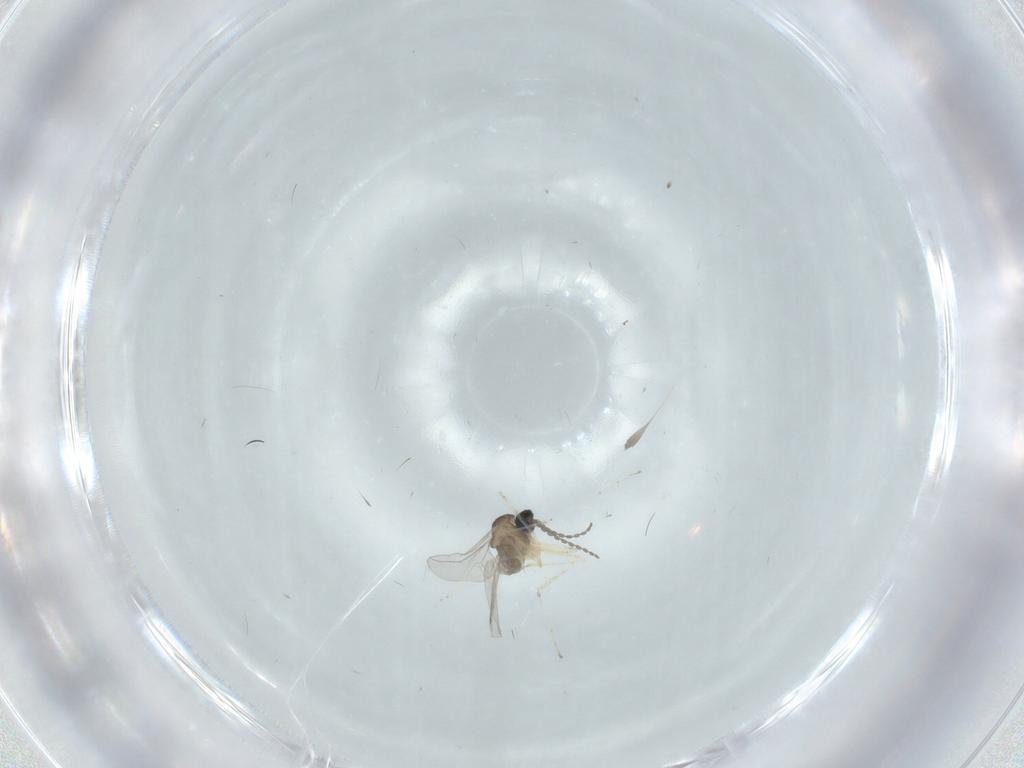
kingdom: Animalia
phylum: Arthropoda
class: Insecta
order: Diptera
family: Cecidomyiidae
